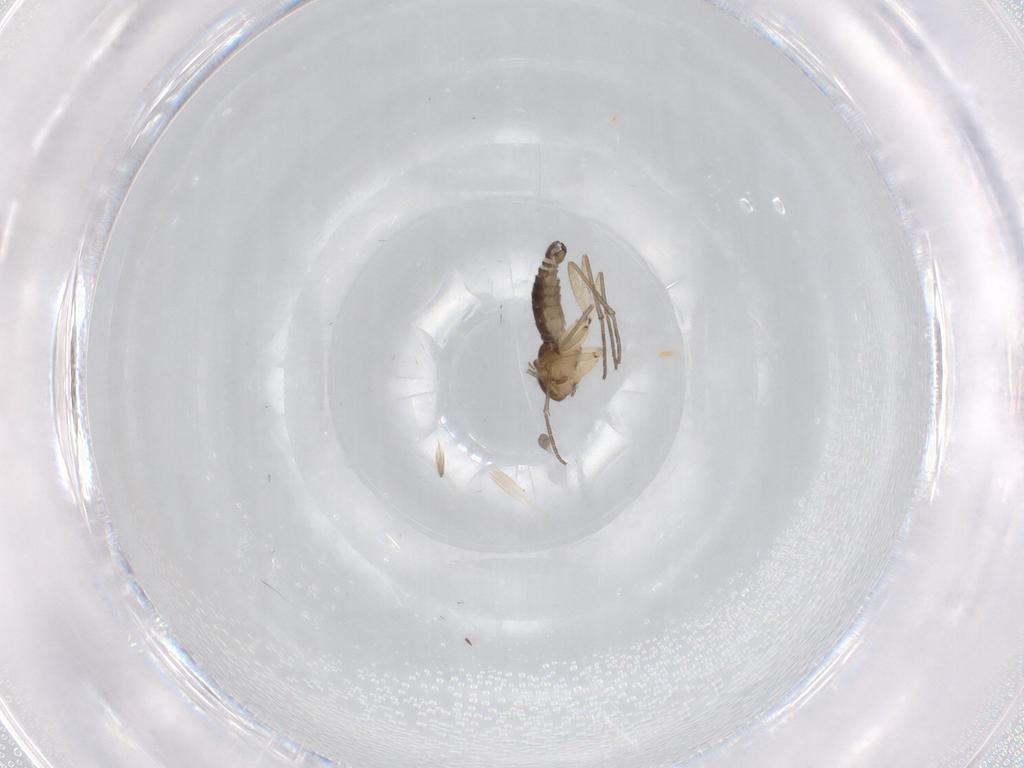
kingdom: Animalia
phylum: Arthropoda
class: Insecta
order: Diptera
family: Sciaridae
